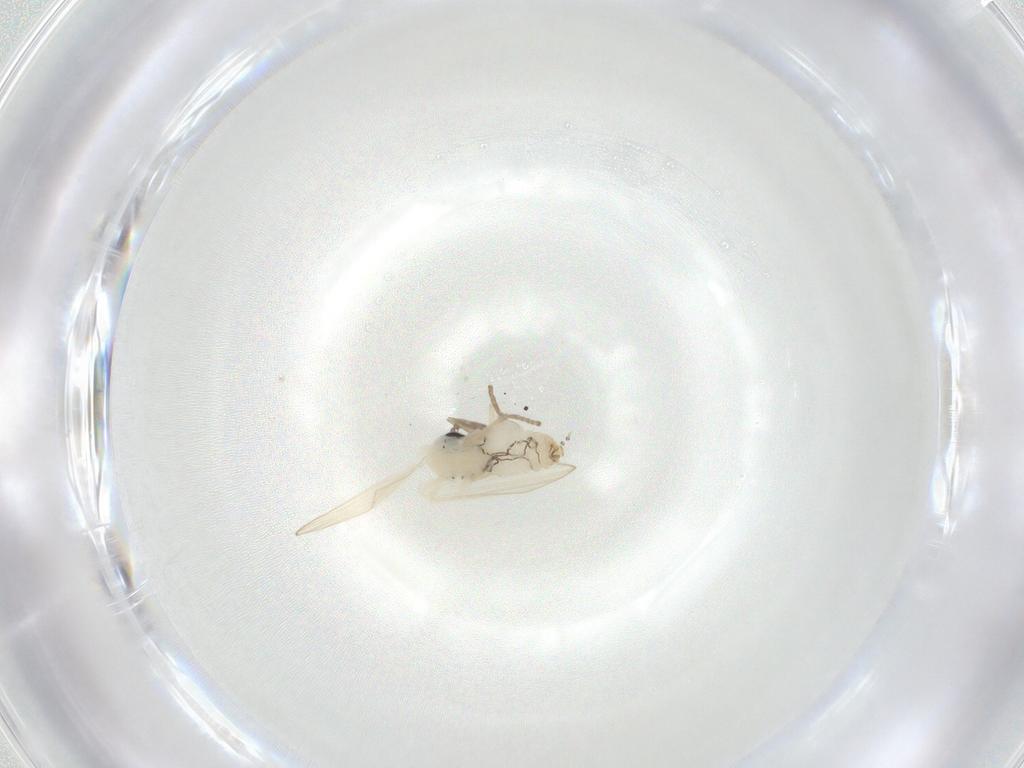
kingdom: Animalia
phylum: Arthropoda
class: Insecta
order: Diptera
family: Psychodidae
